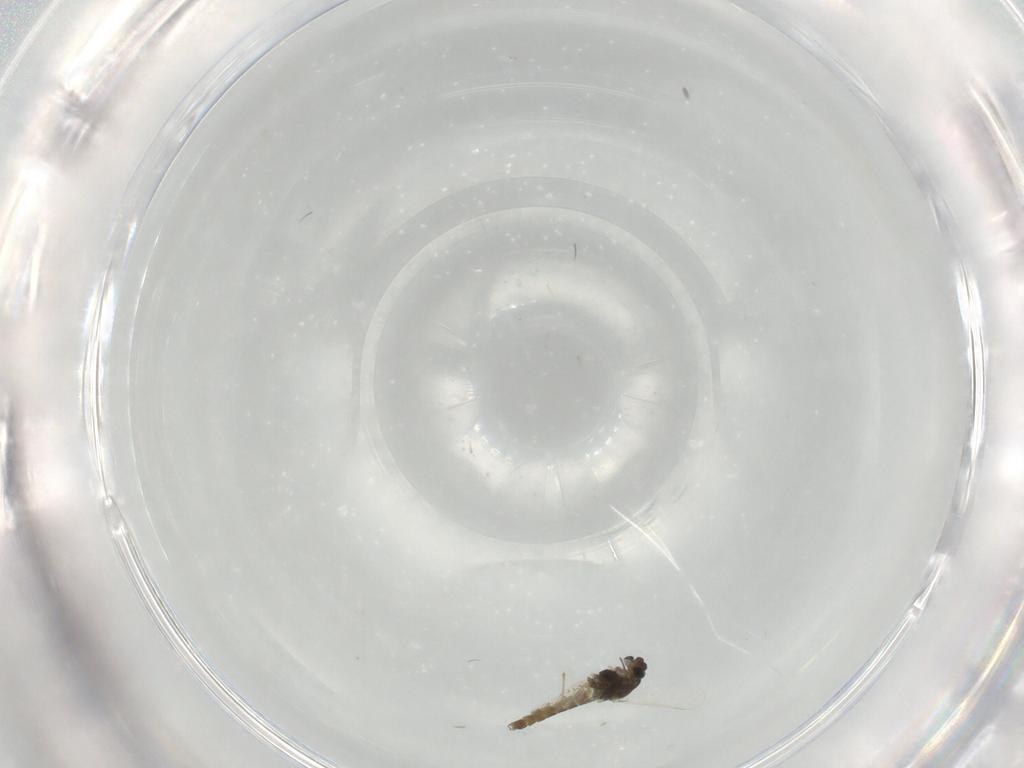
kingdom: Animalia
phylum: Arthropoda
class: Insecta
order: Diptera
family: Chironomidae
